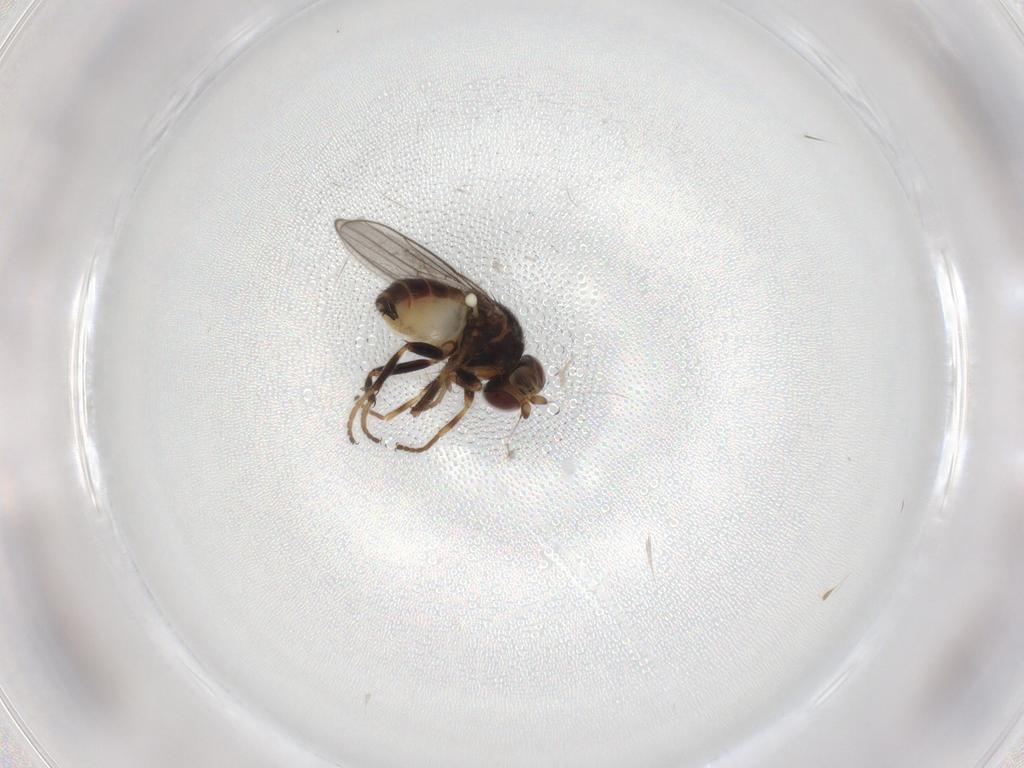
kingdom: Animalia
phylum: Arthropoda
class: Insecta
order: Diptera
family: Chloropidae
